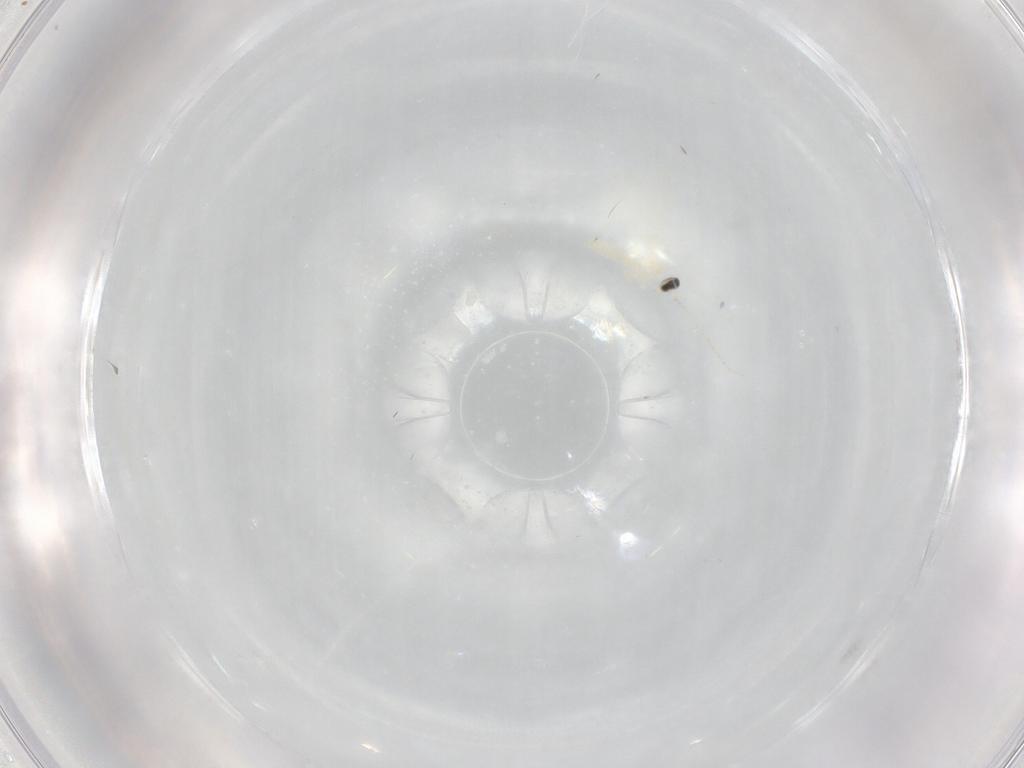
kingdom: Animalia
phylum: Arthropoda
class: Insecta
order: Diptera
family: Cecidomyiidae
